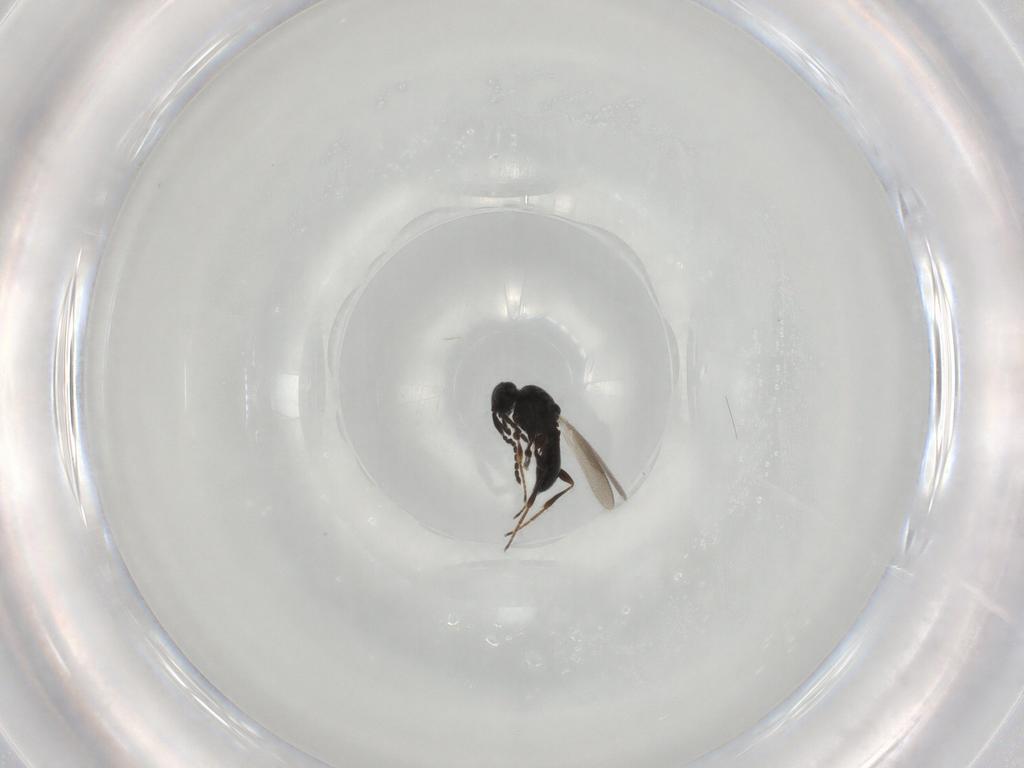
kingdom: Animalia
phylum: Arthropoda
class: Insecta
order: Hymenoptera
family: Platygastridae
